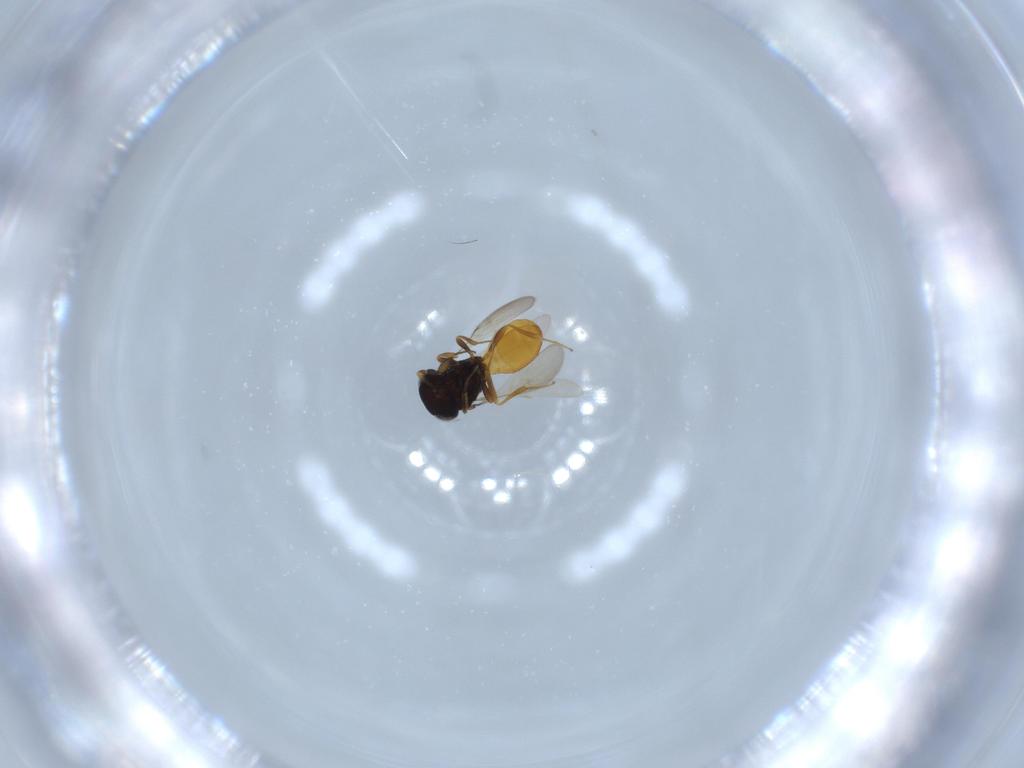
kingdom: Animalia
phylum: Arthropoda
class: Insecta
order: Hymenoptera
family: Scelionidae
